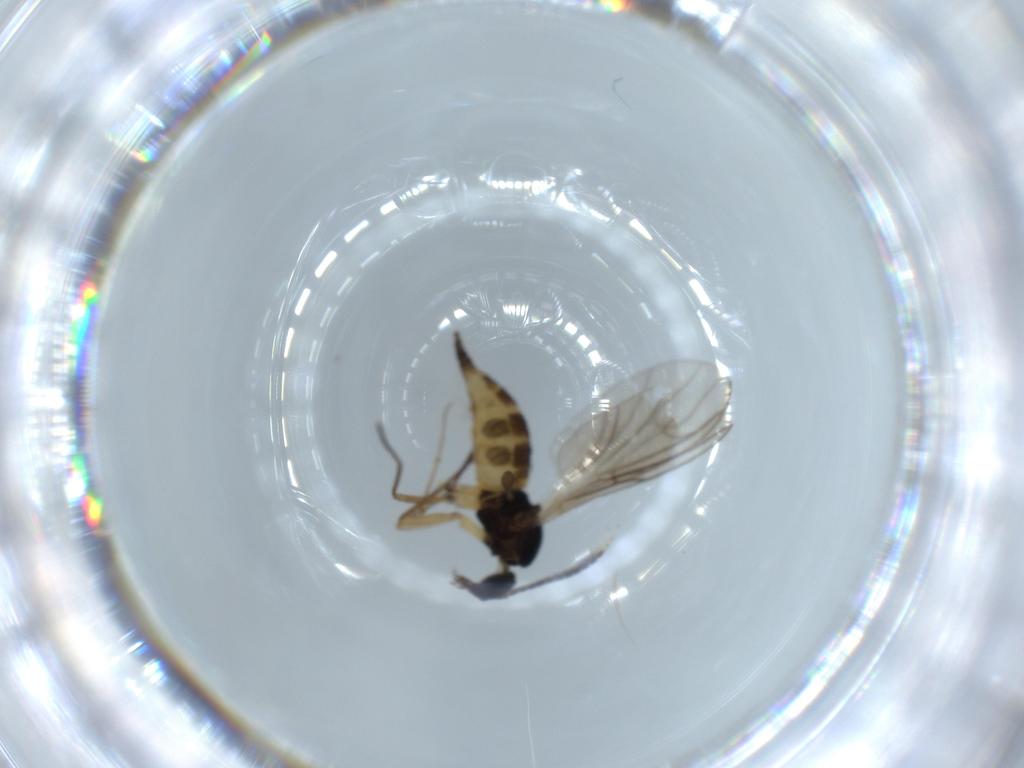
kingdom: Animalia
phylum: Arthropoda
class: Insecta
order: Diptera
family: Sciaridae
